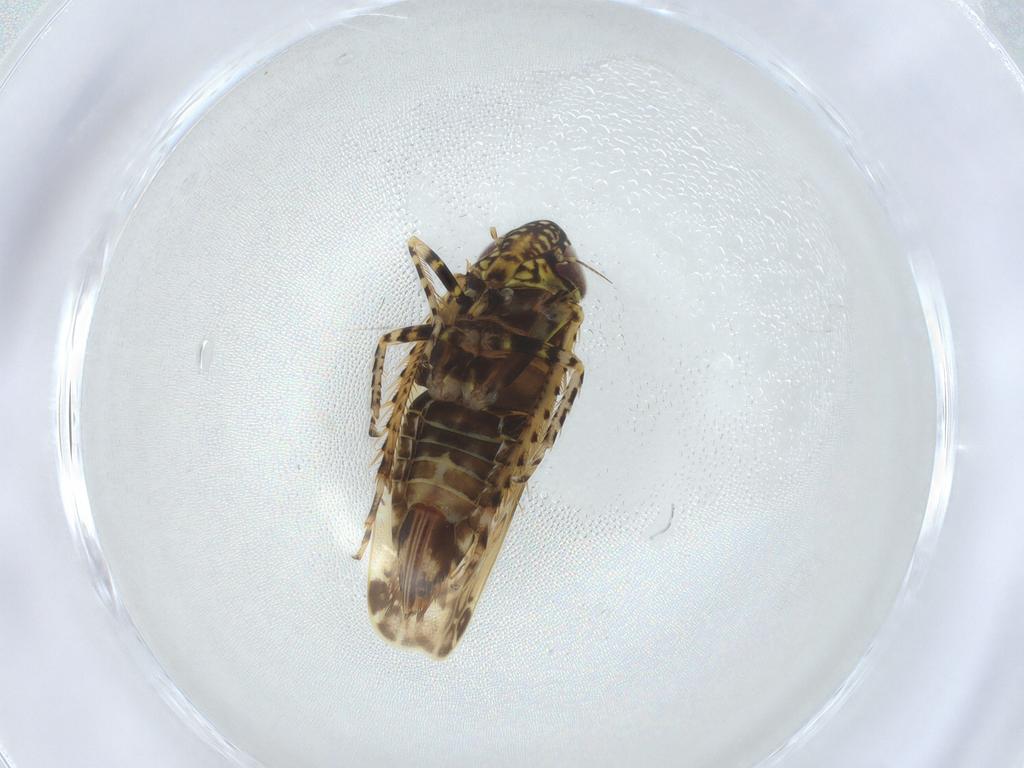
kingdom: Animalia
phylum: Arthropoda
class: Insecta
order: Hemiptera
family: Cicadellidae
